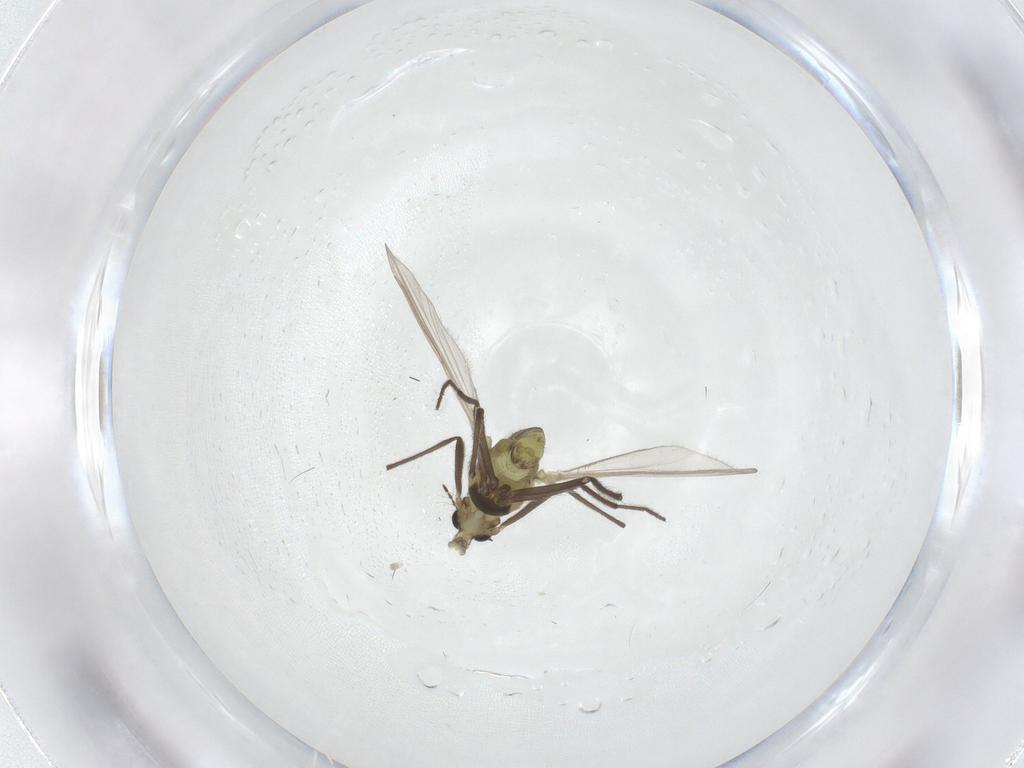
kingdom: Animalia
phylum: Arthropoda
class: Insecta
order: Diptera
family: Chironomidae
